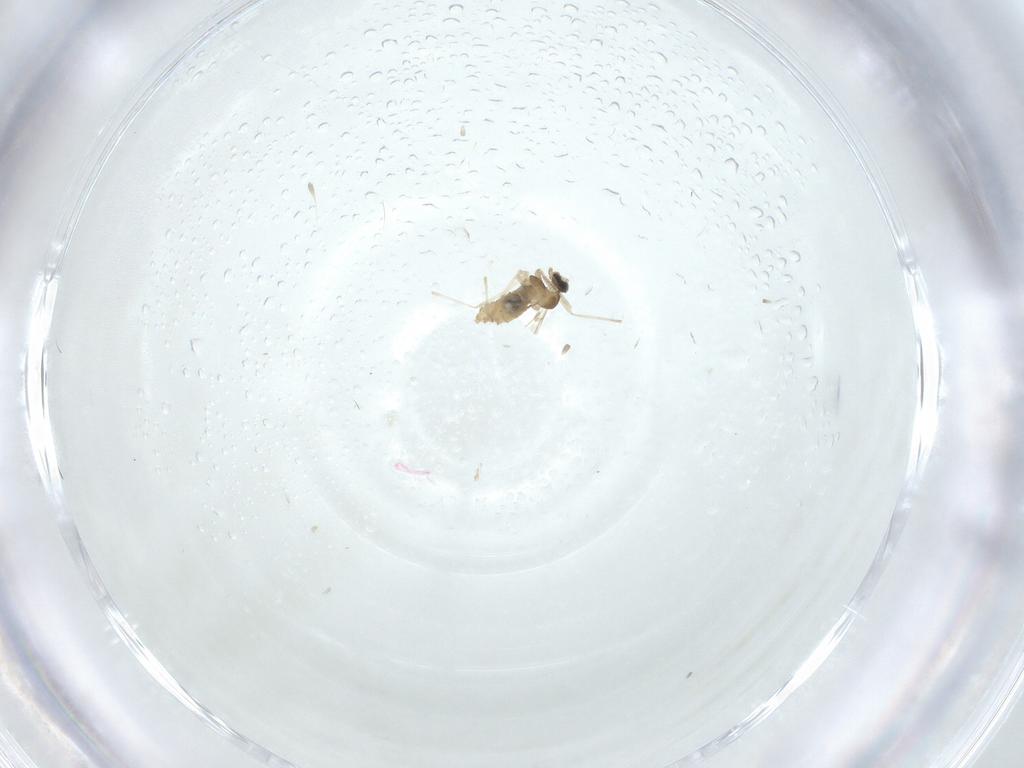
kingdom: Animalia
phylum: Arthropoda
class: Insecta
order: Diptera
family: Cecidomyiidae
